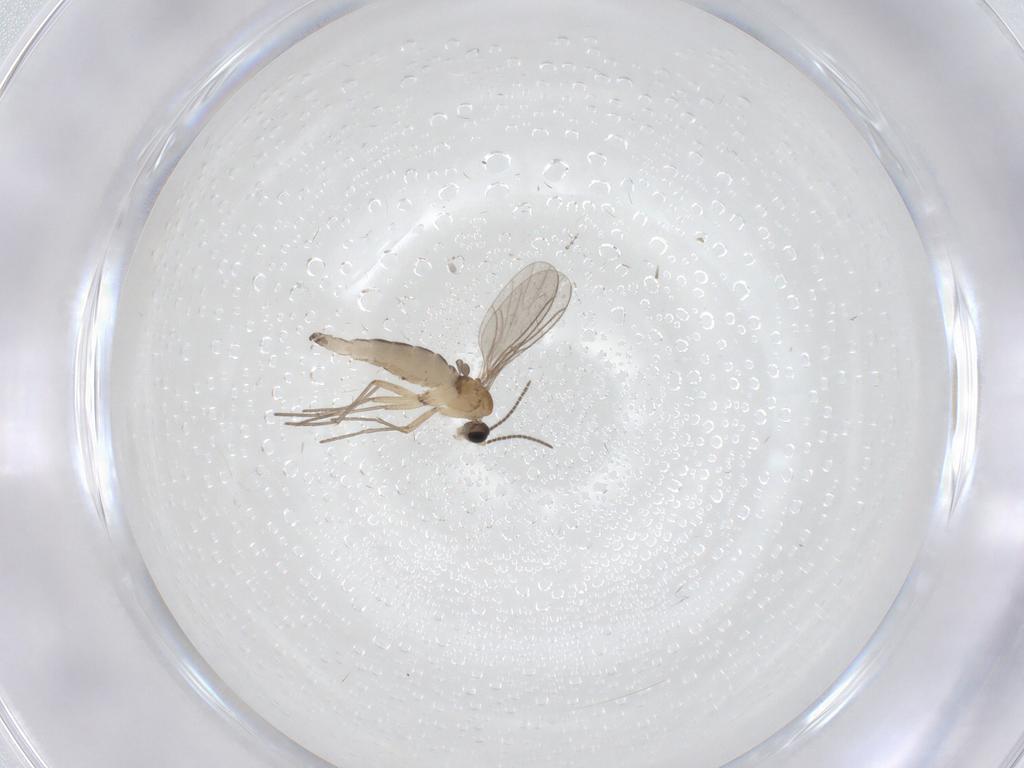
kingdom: Animalia
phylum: Arthropoda
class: Insecta
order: Diptera
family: Sciaridae
